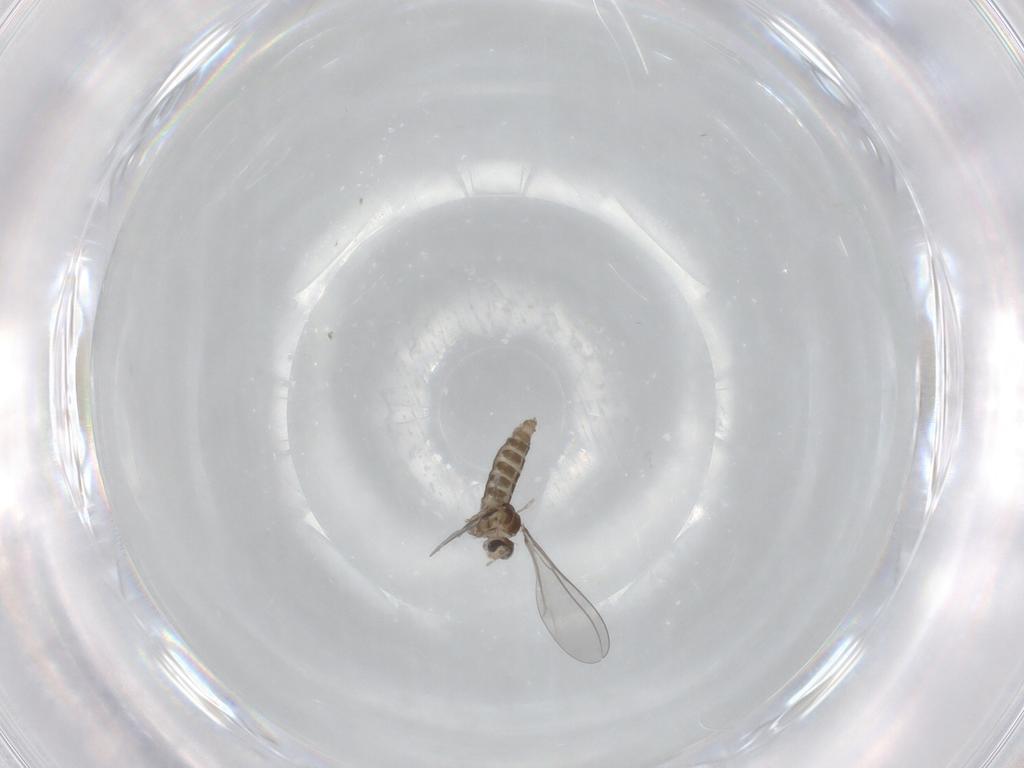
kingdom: Animalia
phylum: Arthropoda
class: Insecta
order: Diptera
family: Cecidomyiidae
